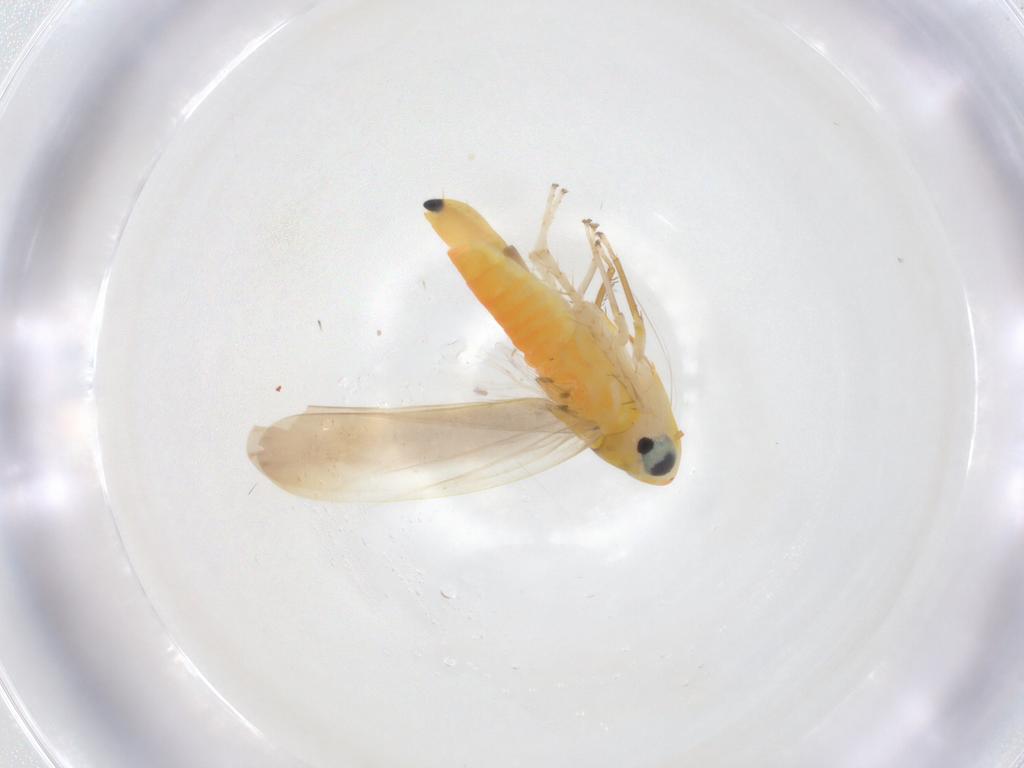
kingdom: Animalia
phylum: Arthropoda
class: Insecta
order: Hemiptera
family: Cicadellidae
